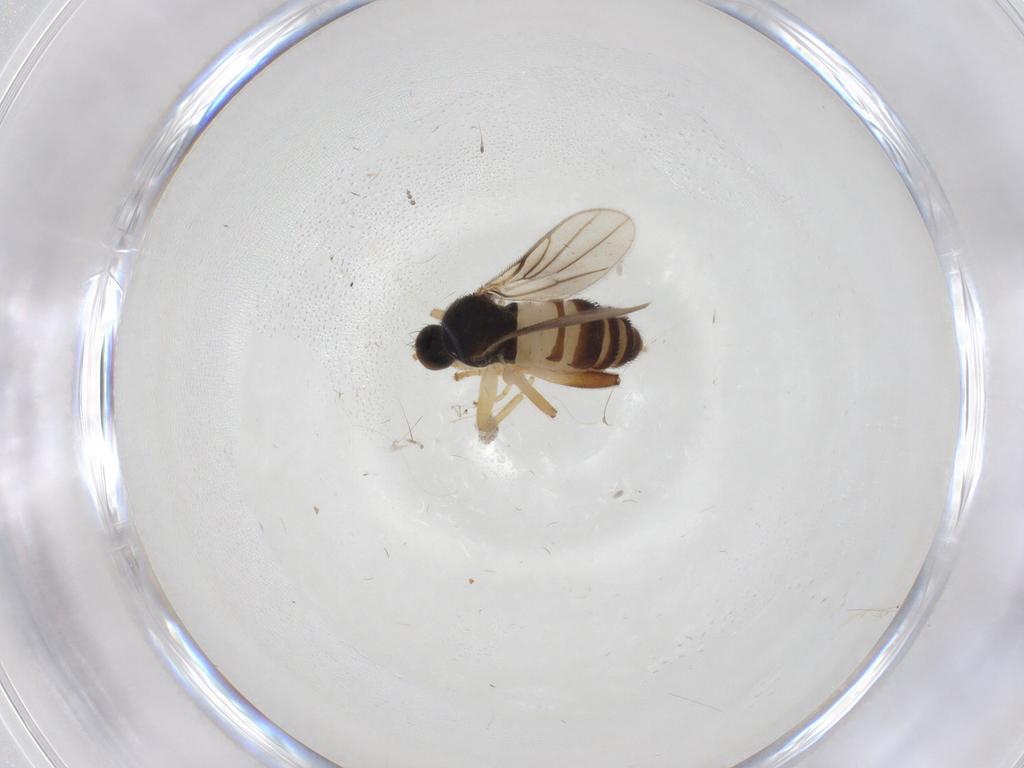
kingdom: Animalia
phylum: Arthropoda
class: Insecta
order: Diptera
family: Hybotidae
